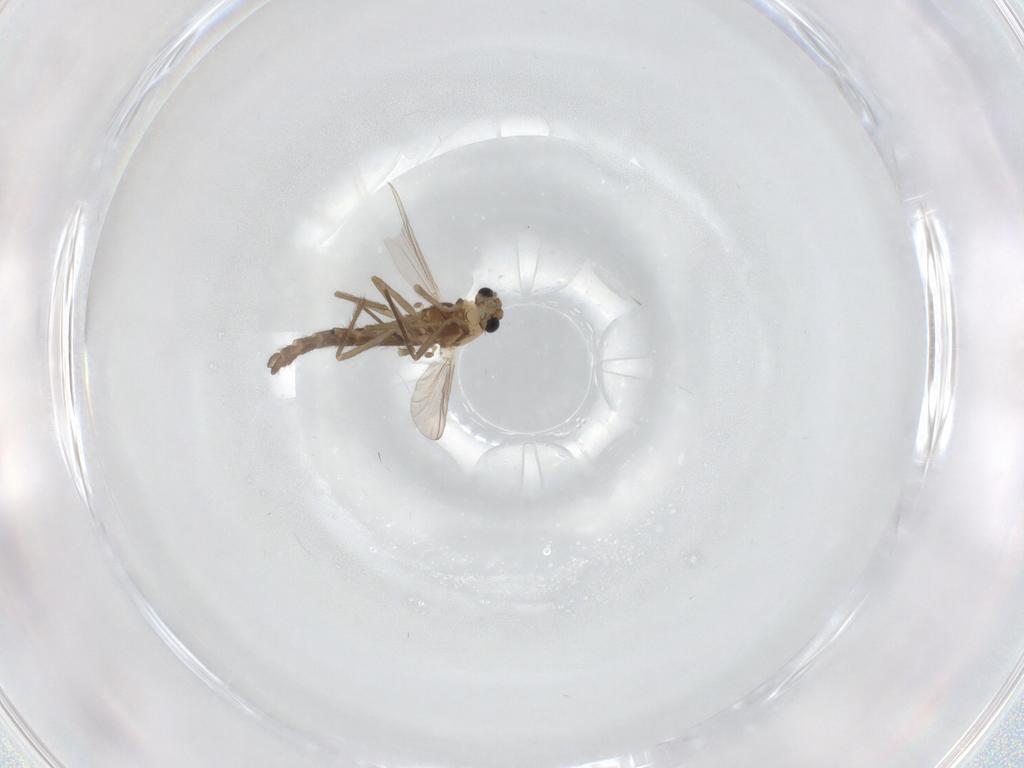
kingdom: Animalia
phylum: Arthropoda
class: Insecta
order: Diptera
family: Chironomidae
